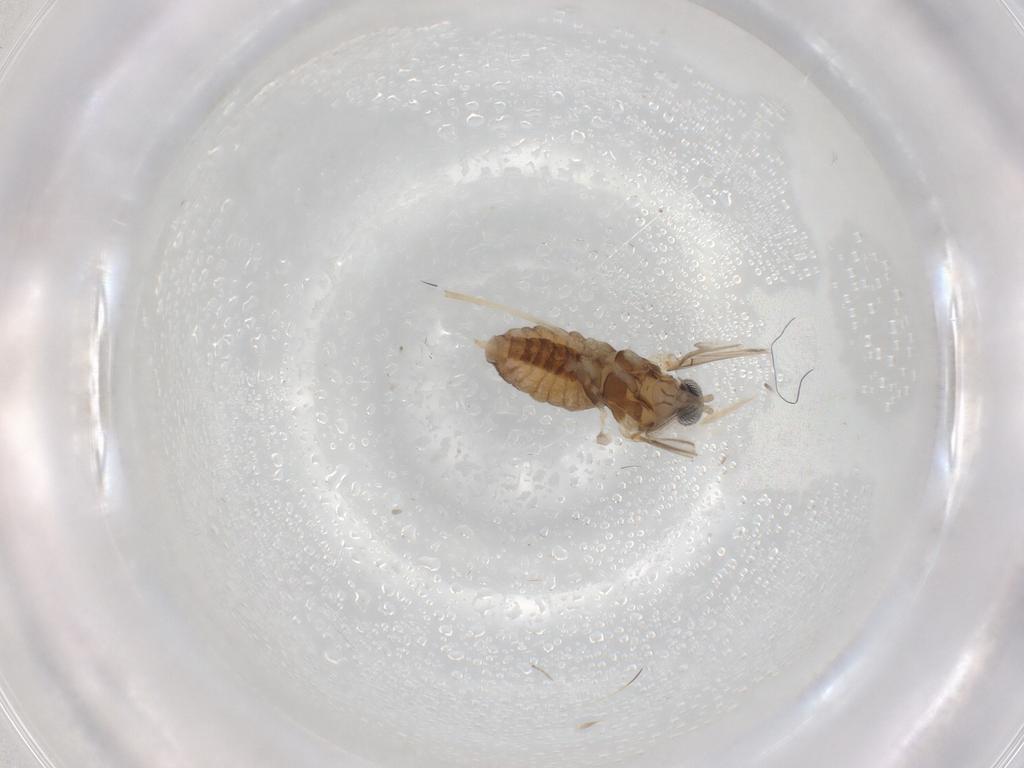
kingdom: Animalia
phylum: Arthropoda
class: Insecta
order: Diptera
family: Cecidomyiidae
